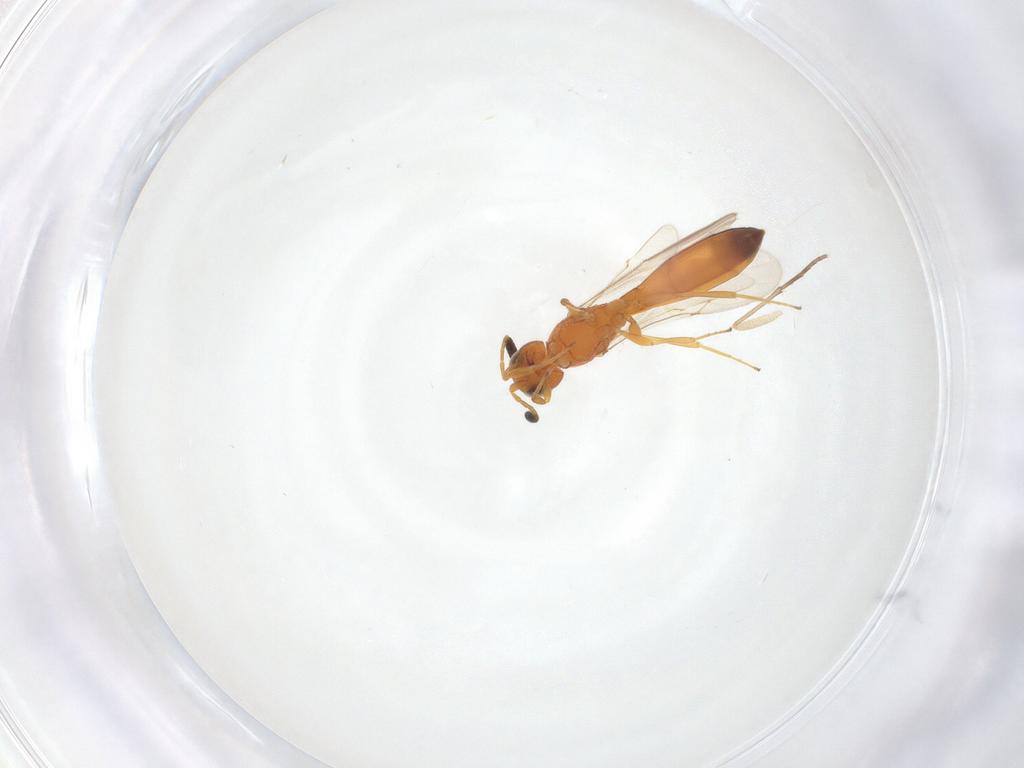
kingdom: Animalia
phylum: Arthropoda
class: Insecta
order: Hymenoptera
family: Scelionidae
